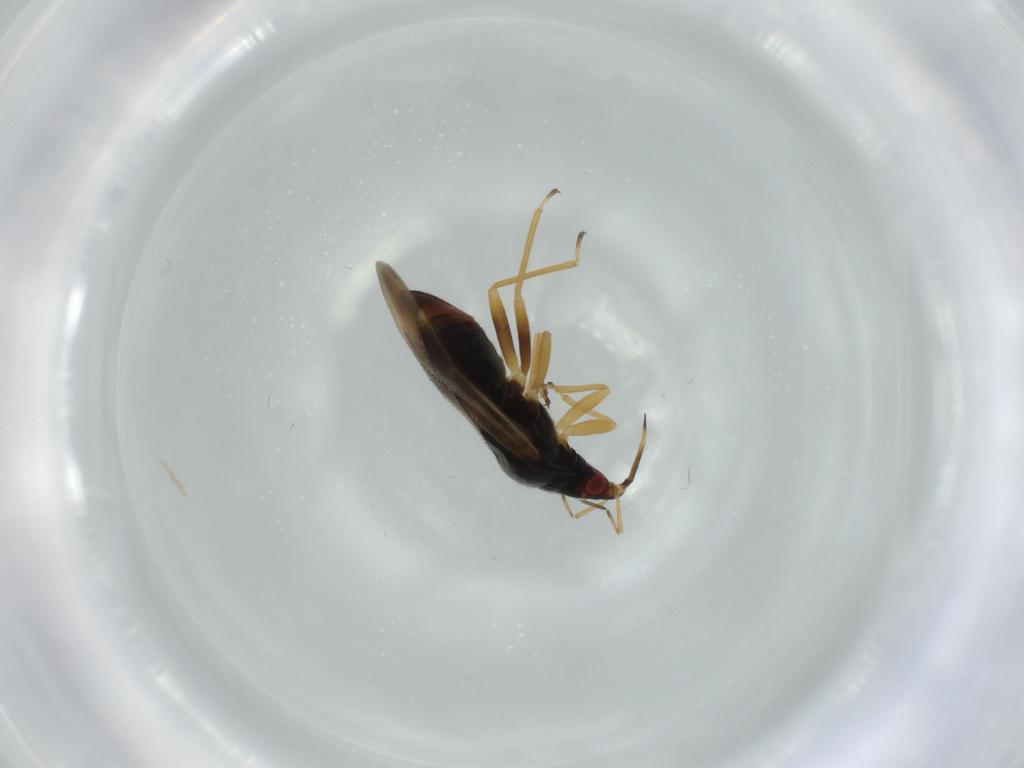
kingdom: Animalia
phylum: Arthropoda
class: Insecta
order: Hemiptera
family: Anthocoridae
